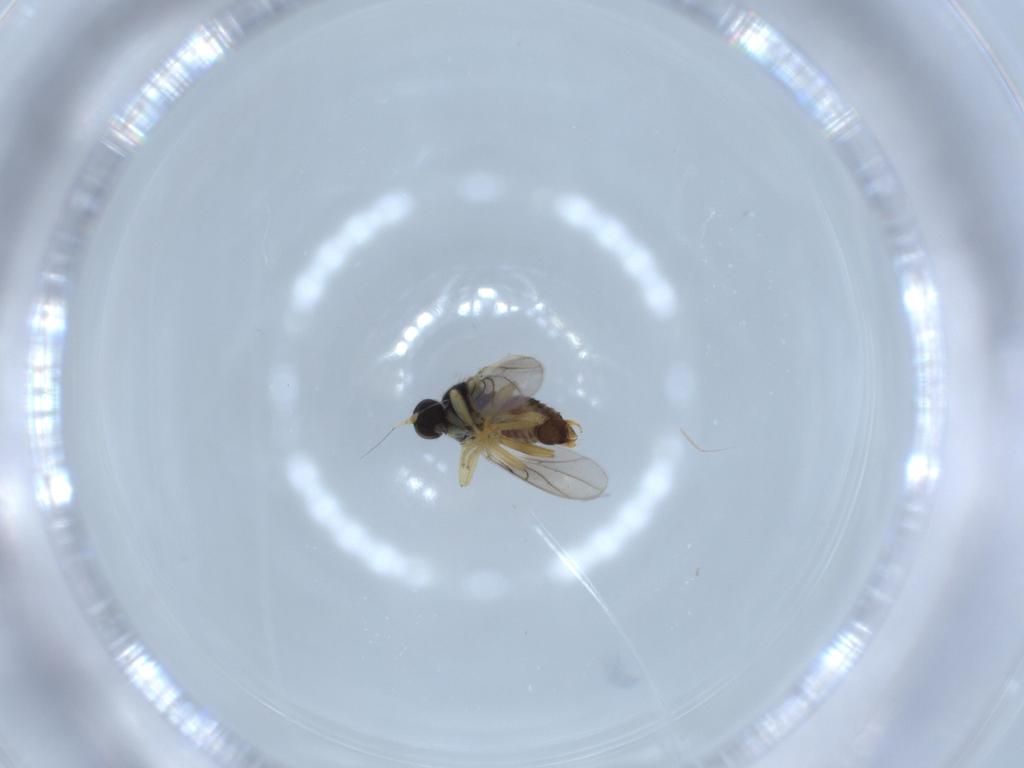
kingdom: Animalia
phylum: Arthropoda
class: Insecta
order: Diptera
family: Hybotidae
